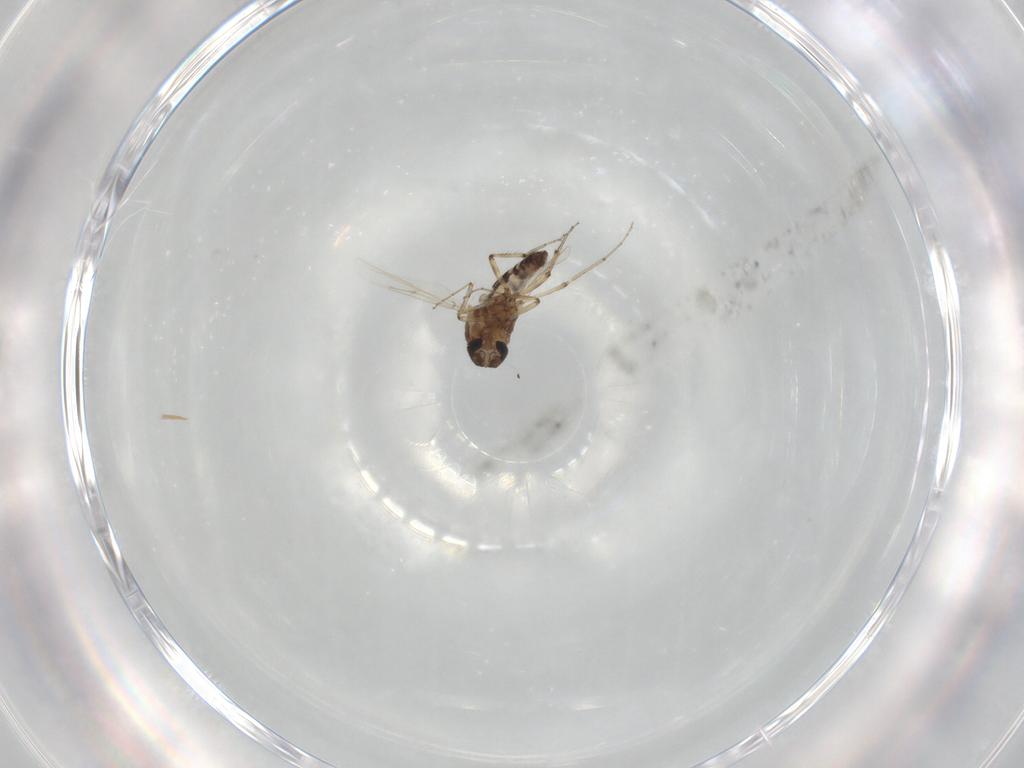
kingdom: Animalia
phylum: Arthropoda
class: Insecta
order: Diptera
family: Ceratopogonidae
